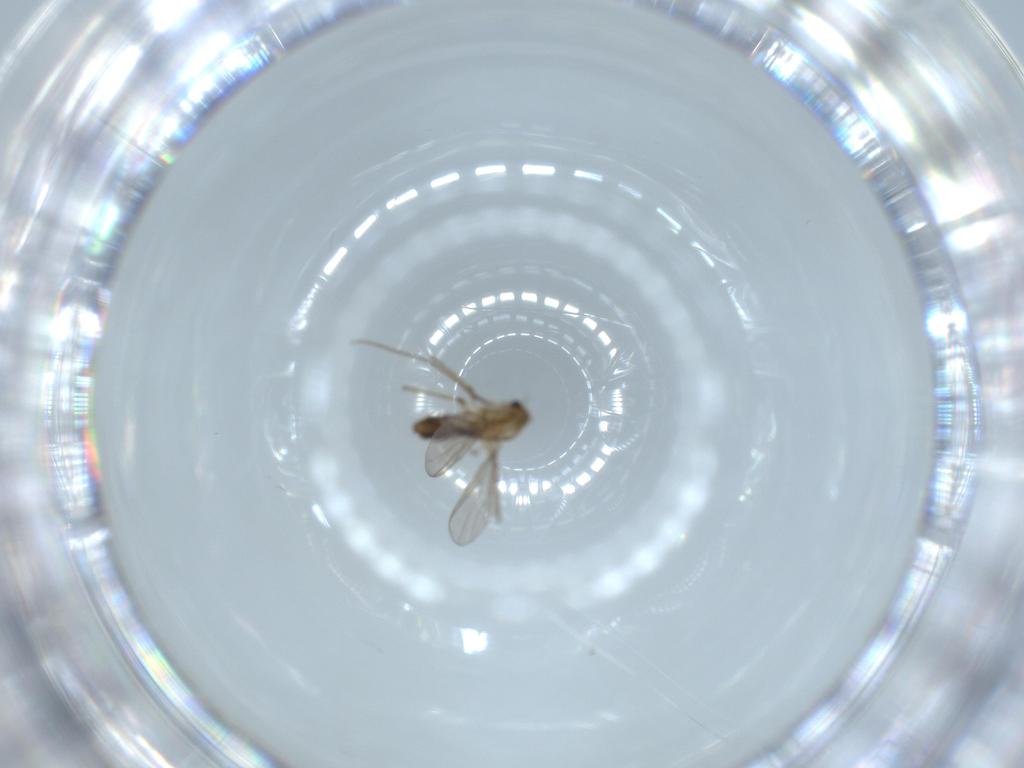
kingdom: Animalia
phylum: Arthropoda
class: Insecta
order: Diptera
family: Chironomidae
